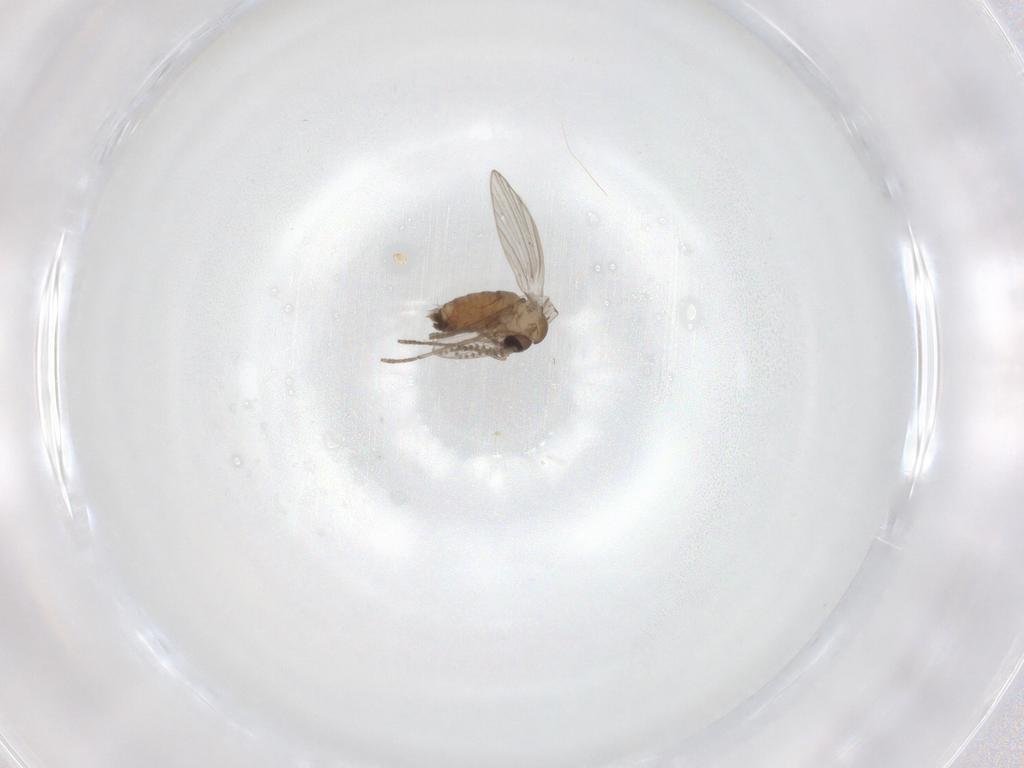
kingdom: Animalia
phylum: Arthropoda
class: Insecta
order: Diptera
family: Psychodidae
